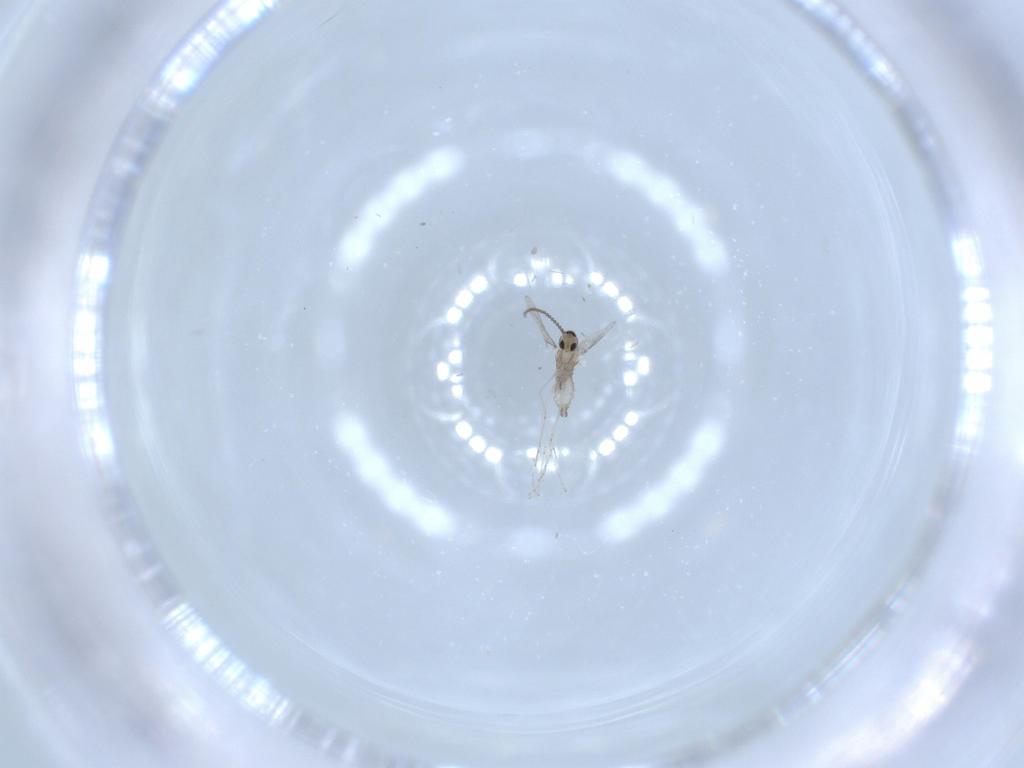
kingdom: Animalia
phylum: Arthropoda
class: Insecta
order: Diptera
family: Cecidomyiidae
